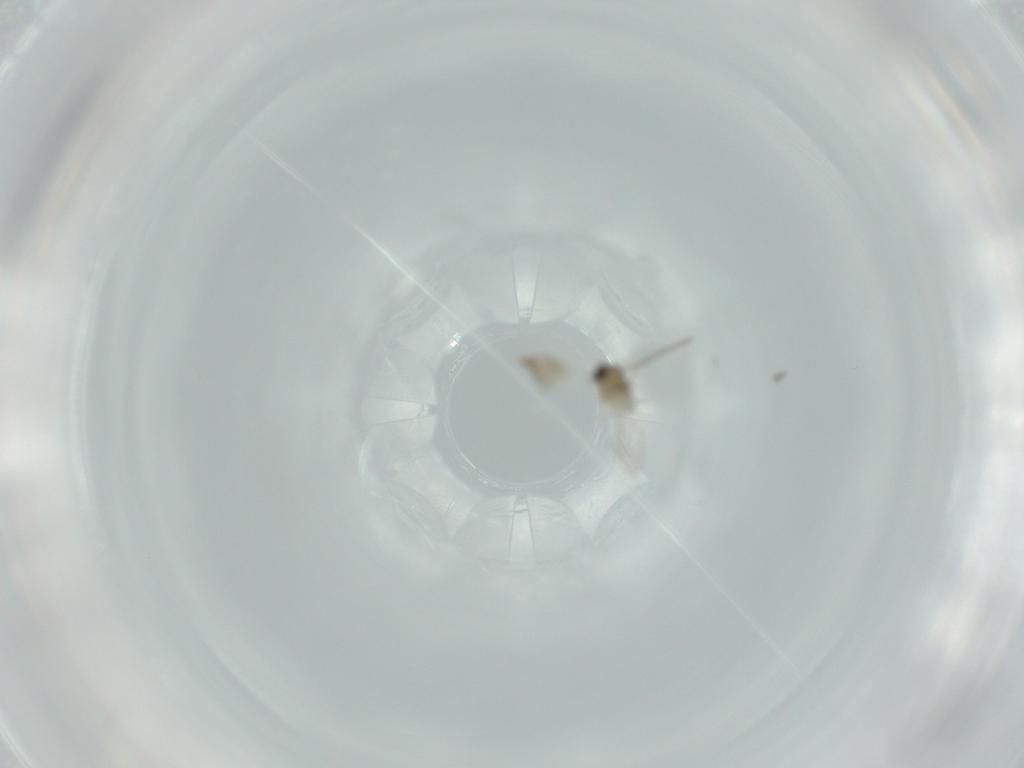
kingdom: Animalia
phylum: Arthropoda
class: Insecta
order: Diptera
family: Cecidomyiidae
